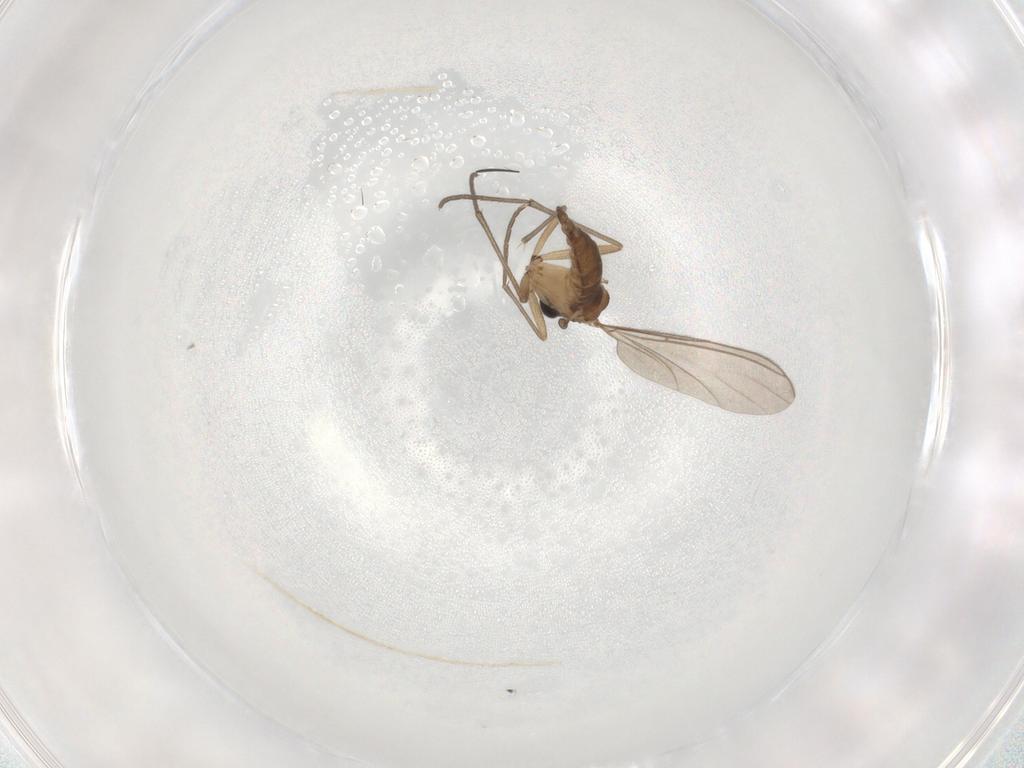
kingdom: Animalia
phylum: Arthropoda
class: Insecta
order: Diptera
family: Sciaridae
